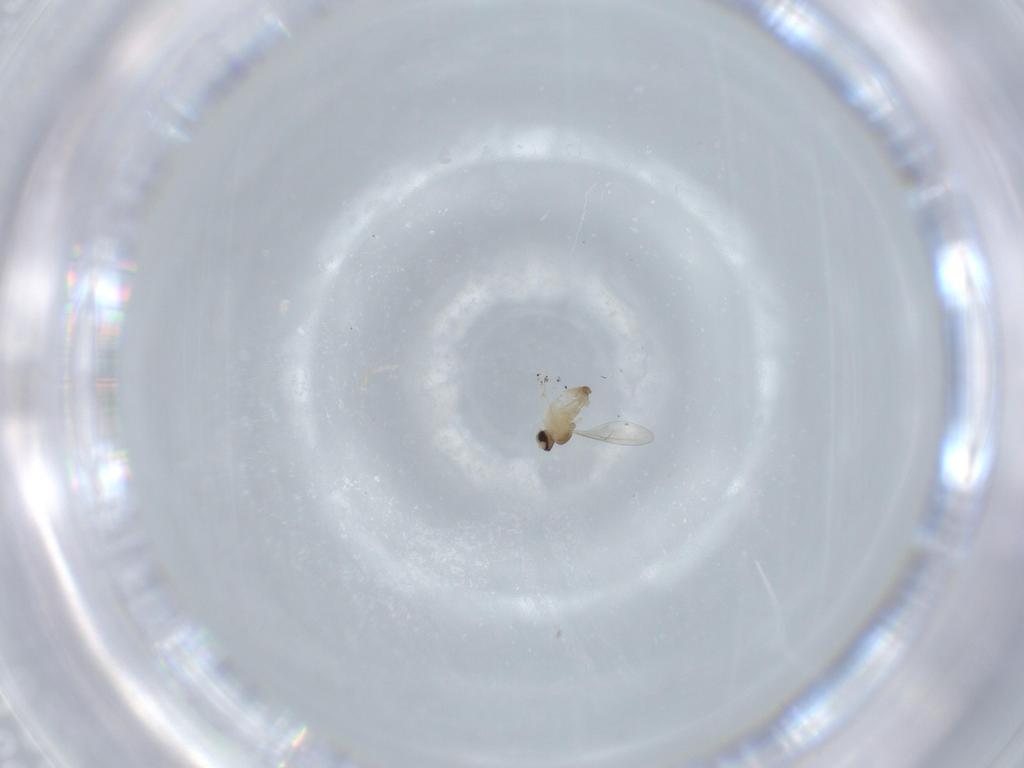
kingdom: Animalia
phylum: Arthropoda
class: Insecta
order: Diptera
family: Cecidomyiidae
